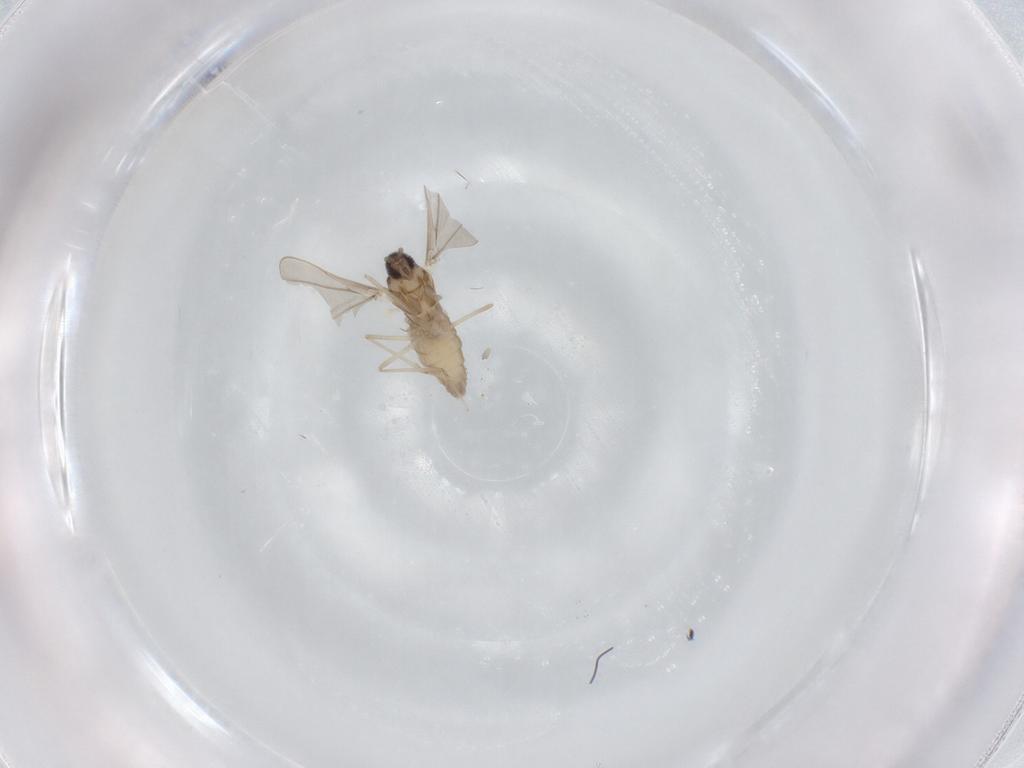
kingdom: Animalia
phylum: Arthropoda
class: Insecta
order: Diptera
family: Cecidomyiidae
